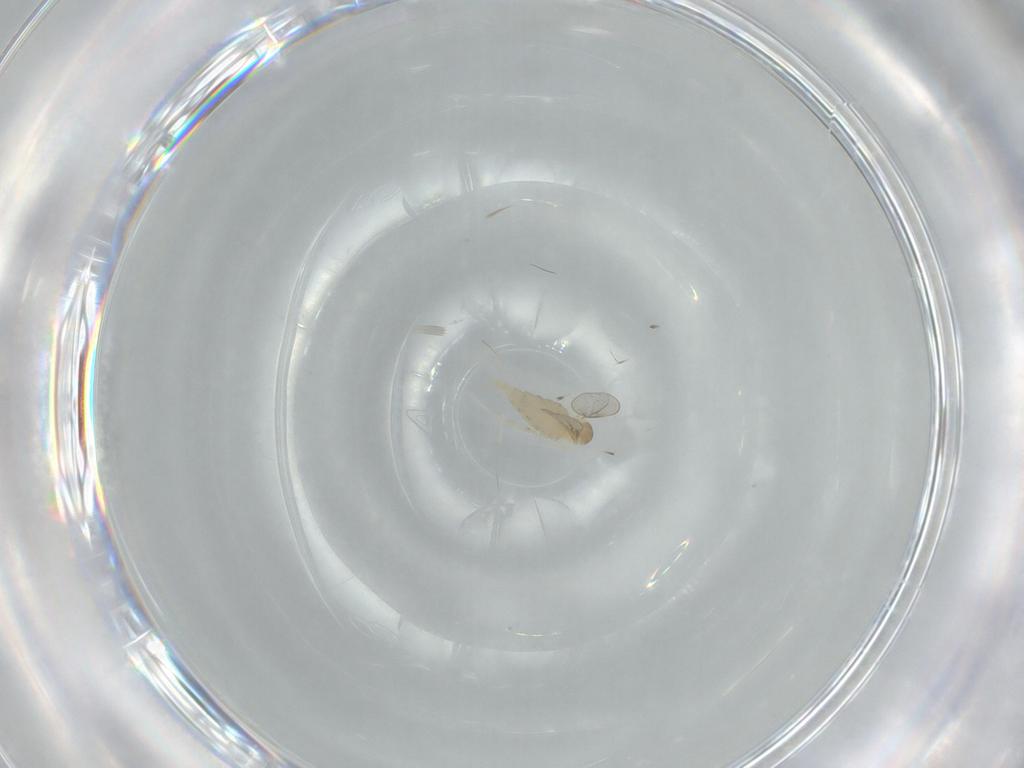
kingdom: Animalia
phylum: Arthropoda
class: Insecta
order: Diptera
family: Cecidomyiidae
